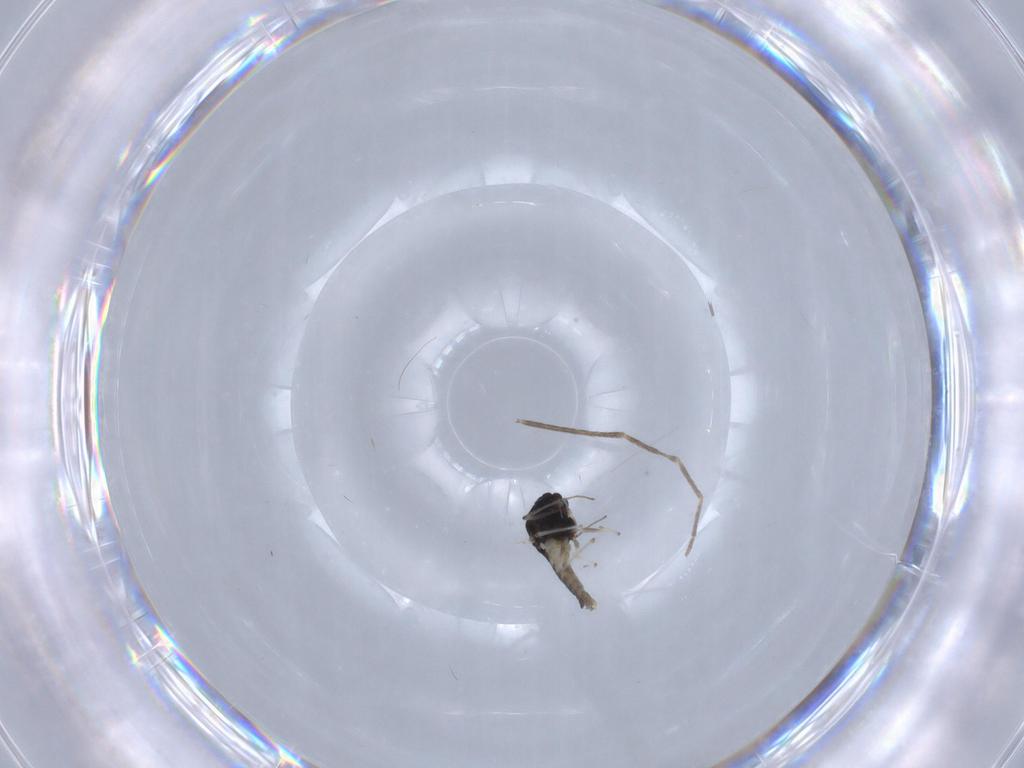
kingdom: Animalia
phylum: Arthropoda
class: Insecta
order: Diptera
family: Chironomidae
